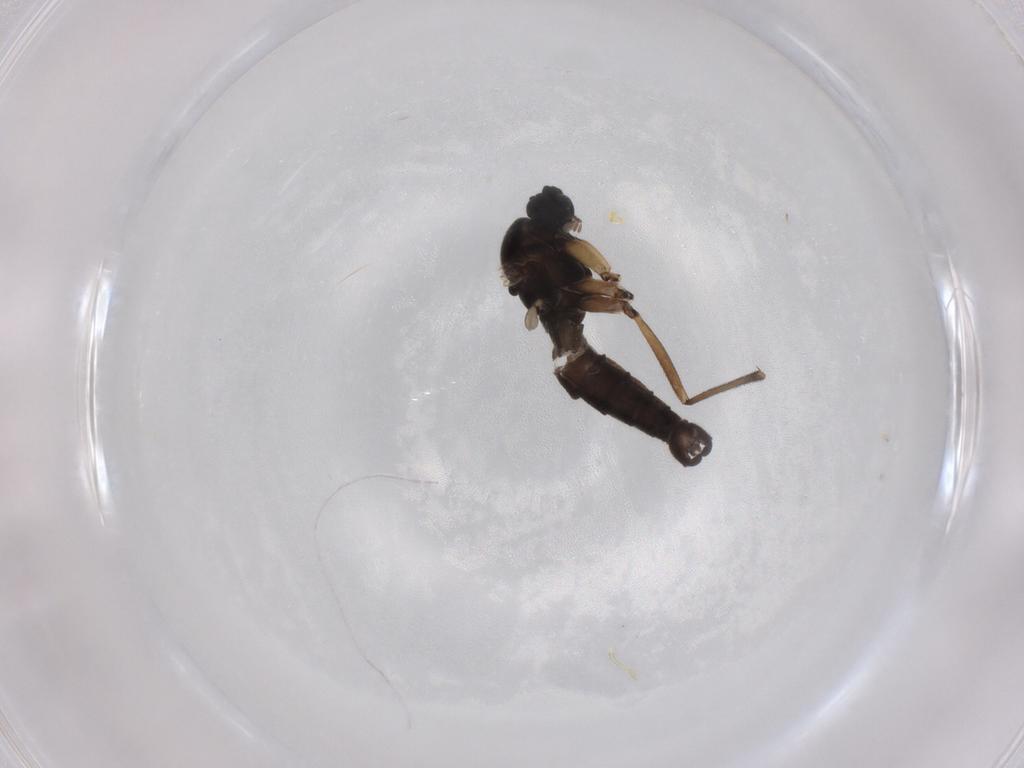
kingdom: Animalia
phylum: Arthropoda
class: Insecta
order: Diptera
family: Sciaridae
